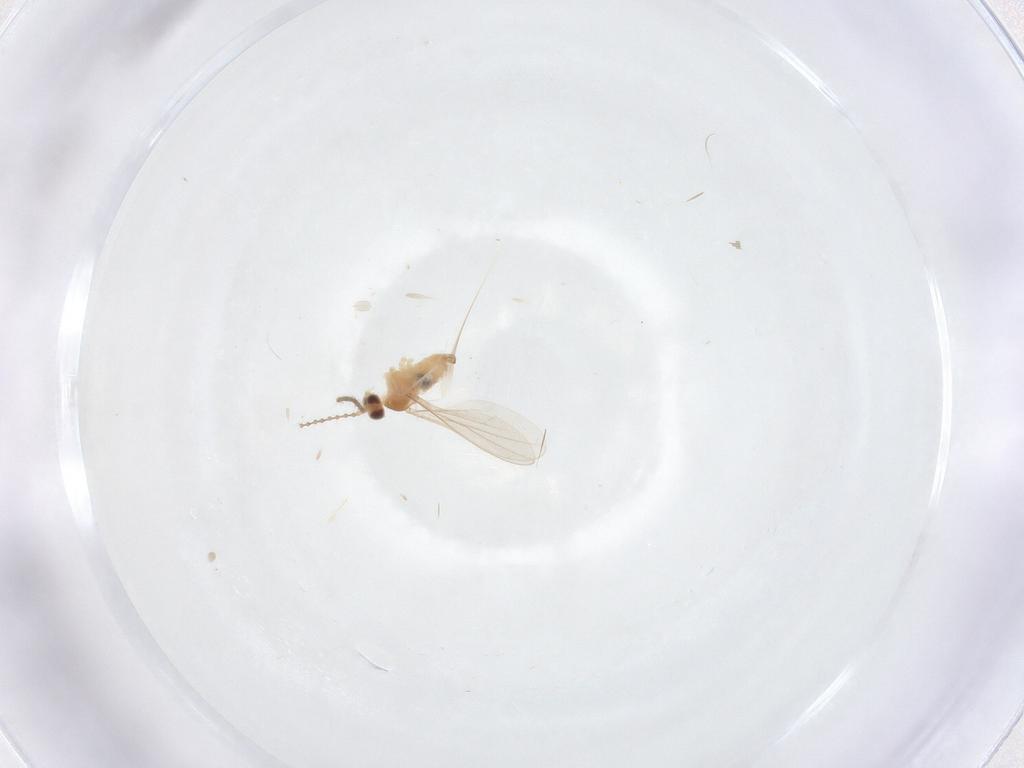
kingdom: Animalia
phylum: Arthropoda
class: Insecta
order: Diptera
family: Cecidomyiidae
